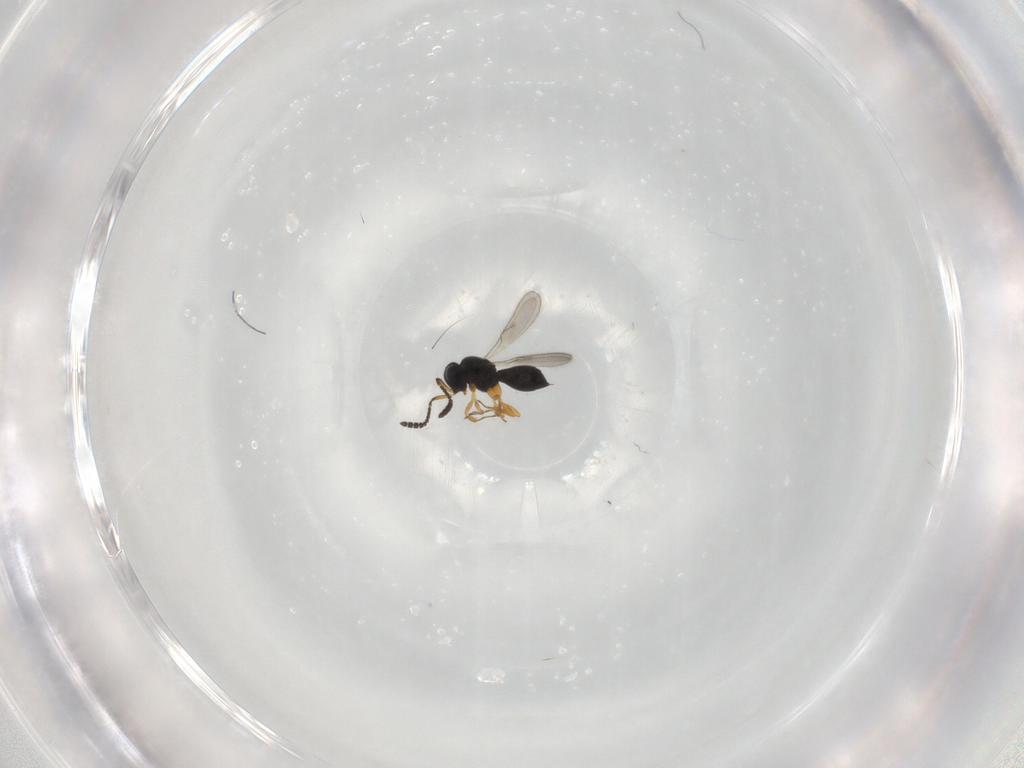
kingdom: Animalia
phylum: Arthropoda
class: Insecta
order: Hymenoptera
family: Scelionidae
